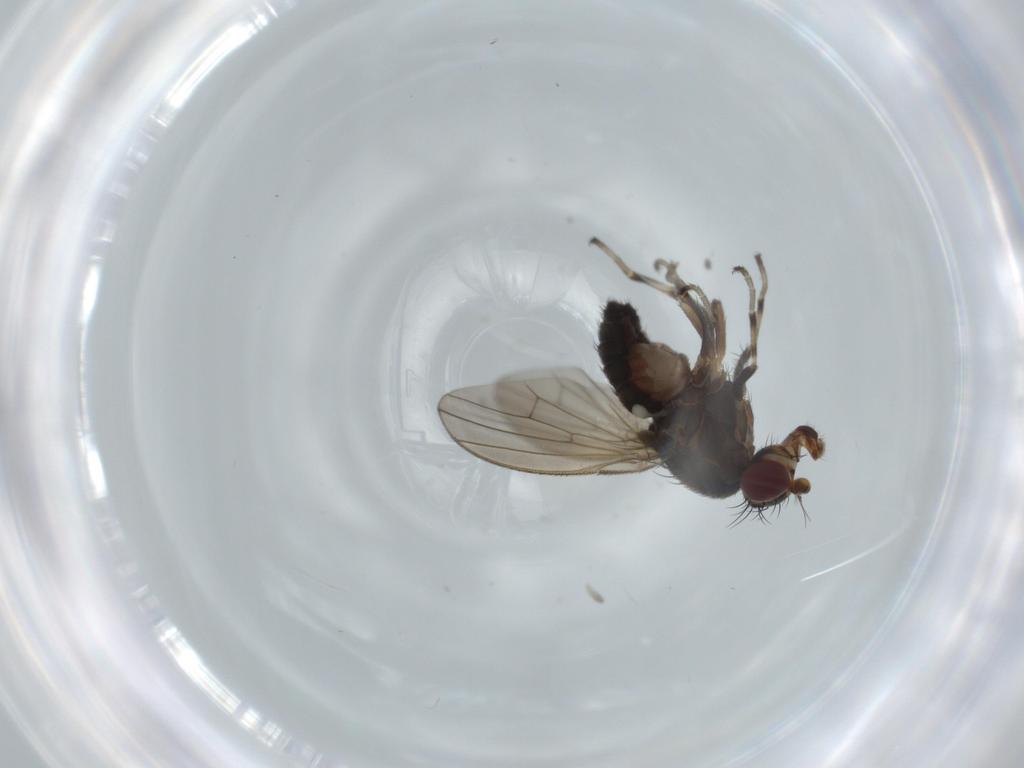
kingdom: Animalia
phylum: Arthropoda
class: Insecta
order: Diptera
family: Heleomyzidae
